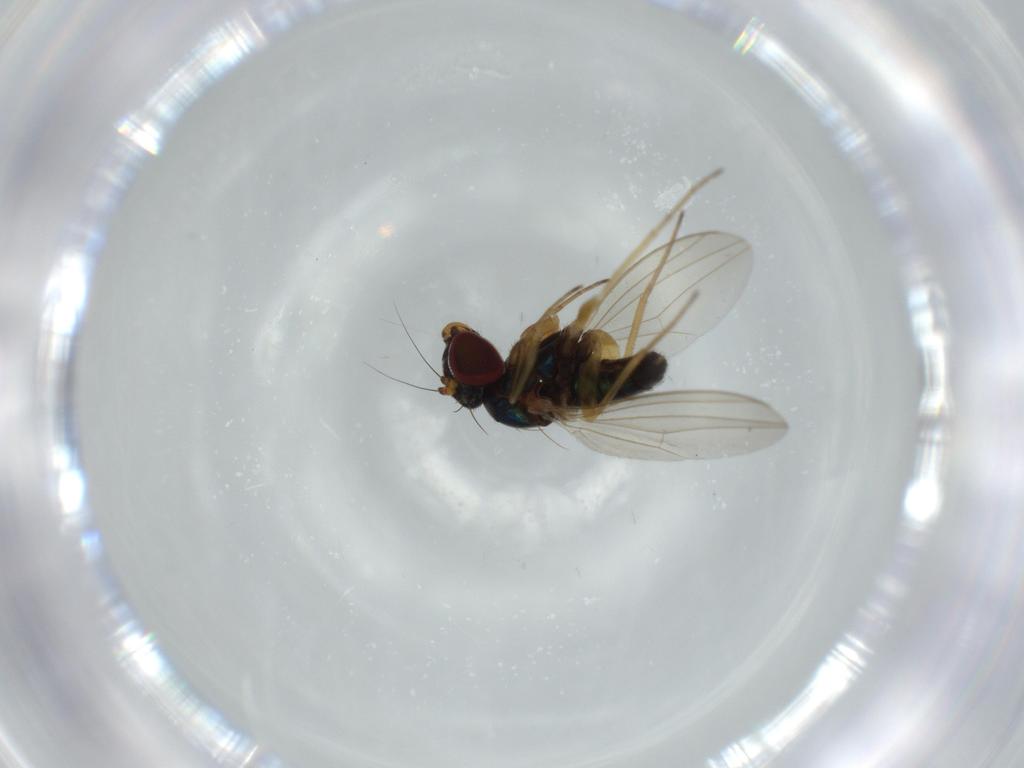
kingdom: Animalia
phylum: Arthropoda
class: Insecta
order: Diptera
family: Dolichopodidae
